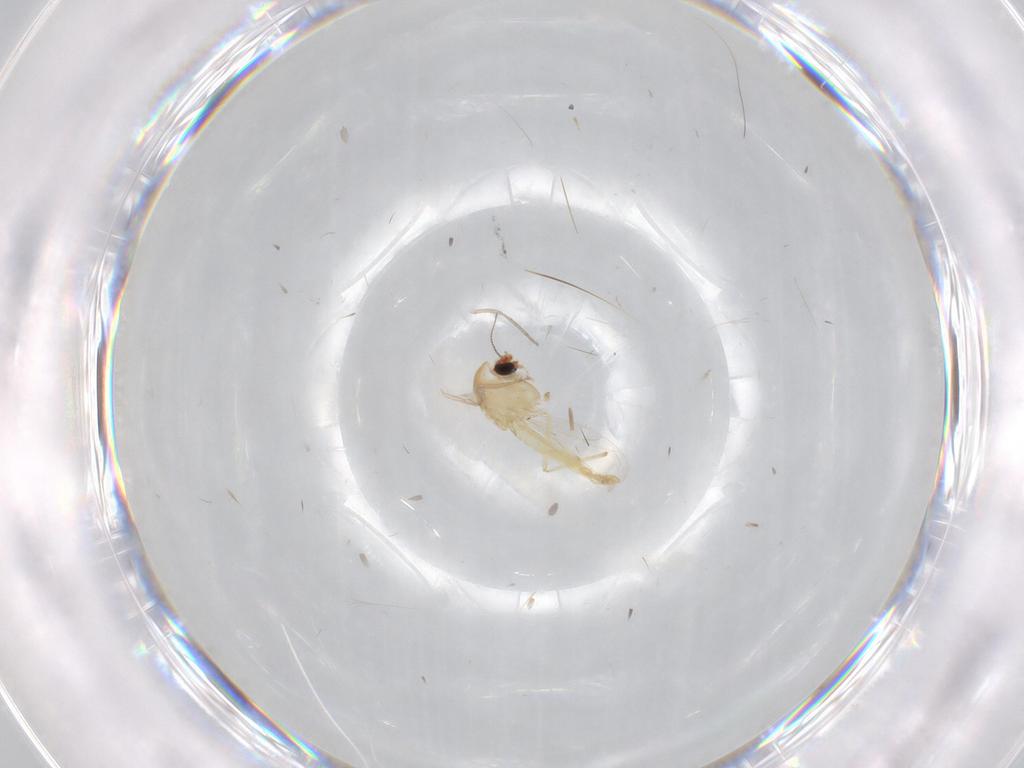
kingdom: Animalia
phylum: Arthropoda
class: Insecta
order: Diptera
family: Psychodidae
